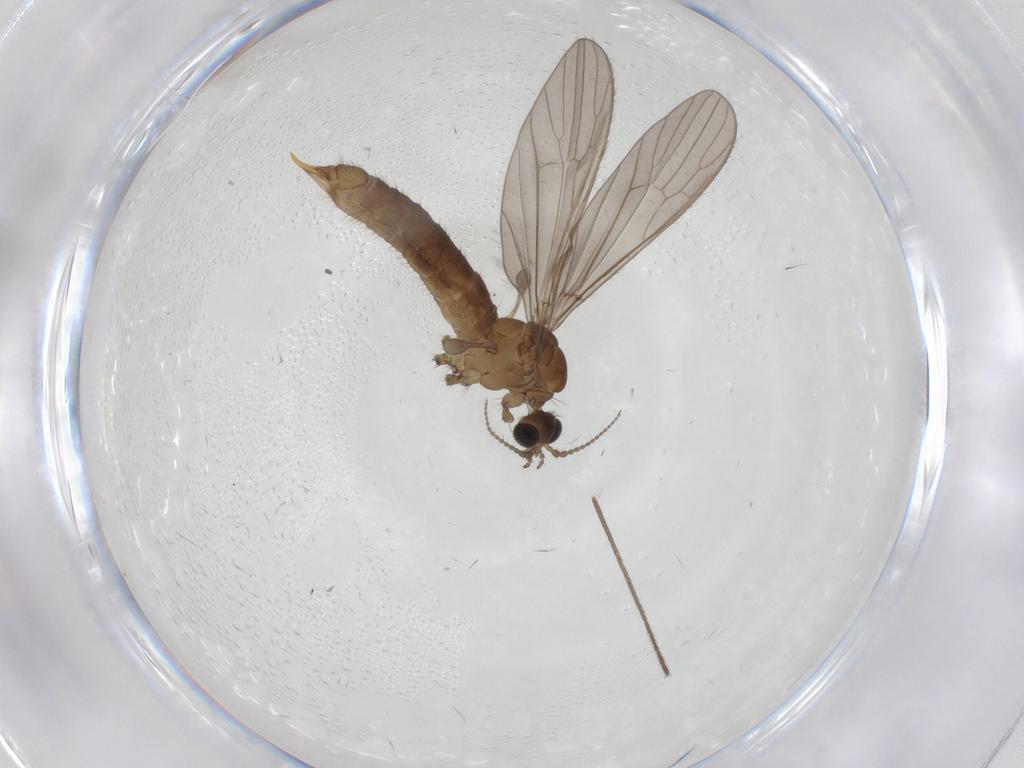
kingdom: Animalia
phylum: Arthropoda
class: Insecta
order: Diptera
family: Limoniidae
